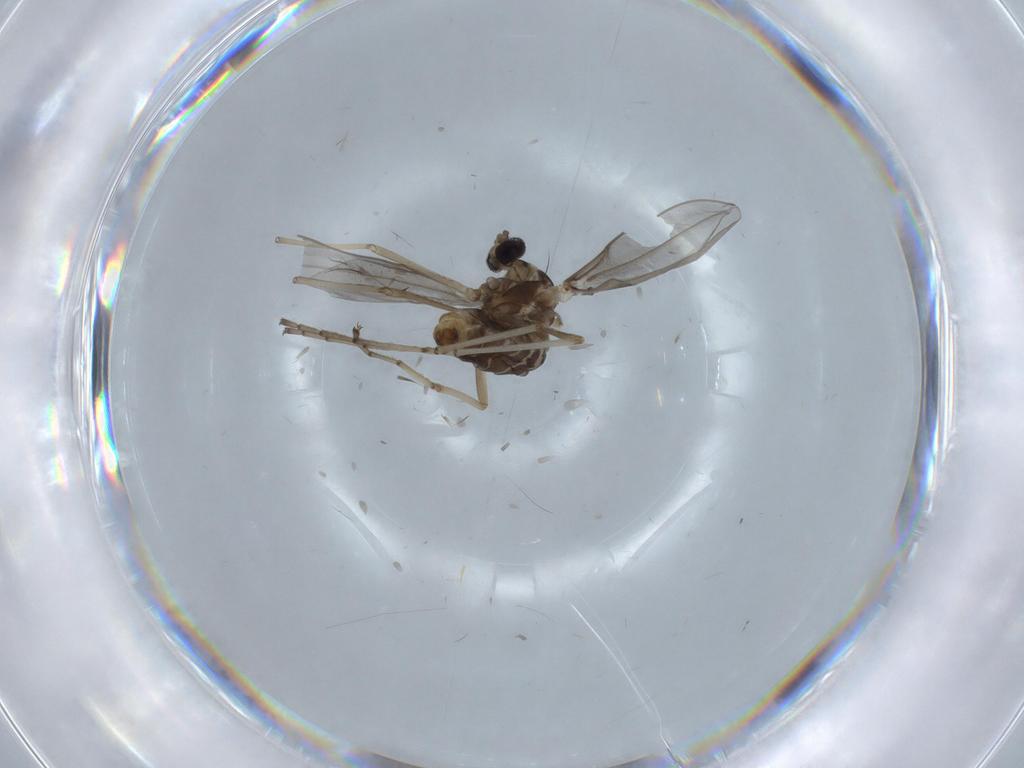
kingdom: Animalia
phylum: Arthropoda
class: Insecta
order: Diptera
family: Cecidomyiidae
